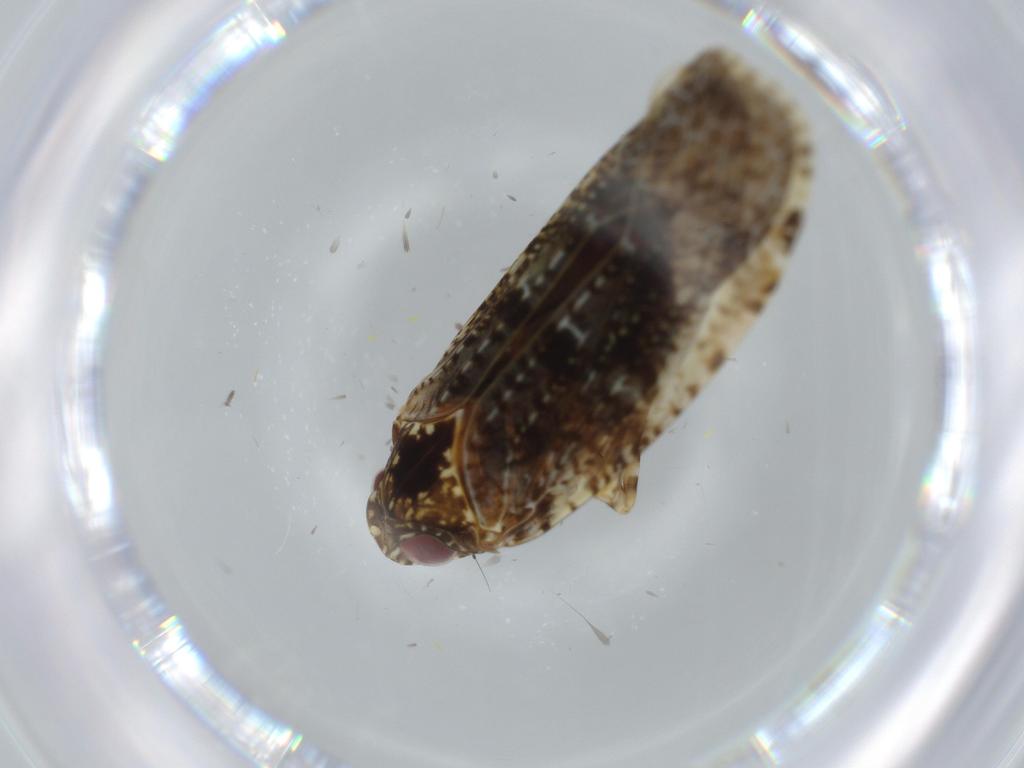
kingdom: Animalia
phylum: Arthropoda
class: Insecta
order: Hemiptera
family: Achilidae
